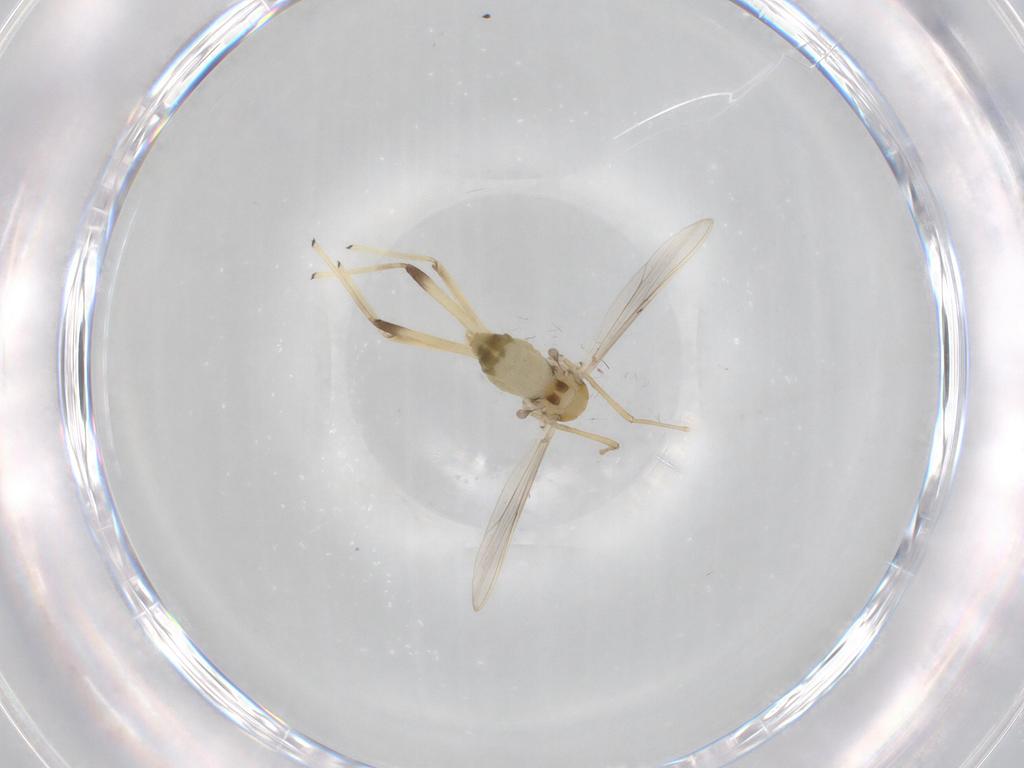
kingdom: Animalia
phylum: Arthropoda
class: Insecta
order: Diptera
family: Chironomidae
